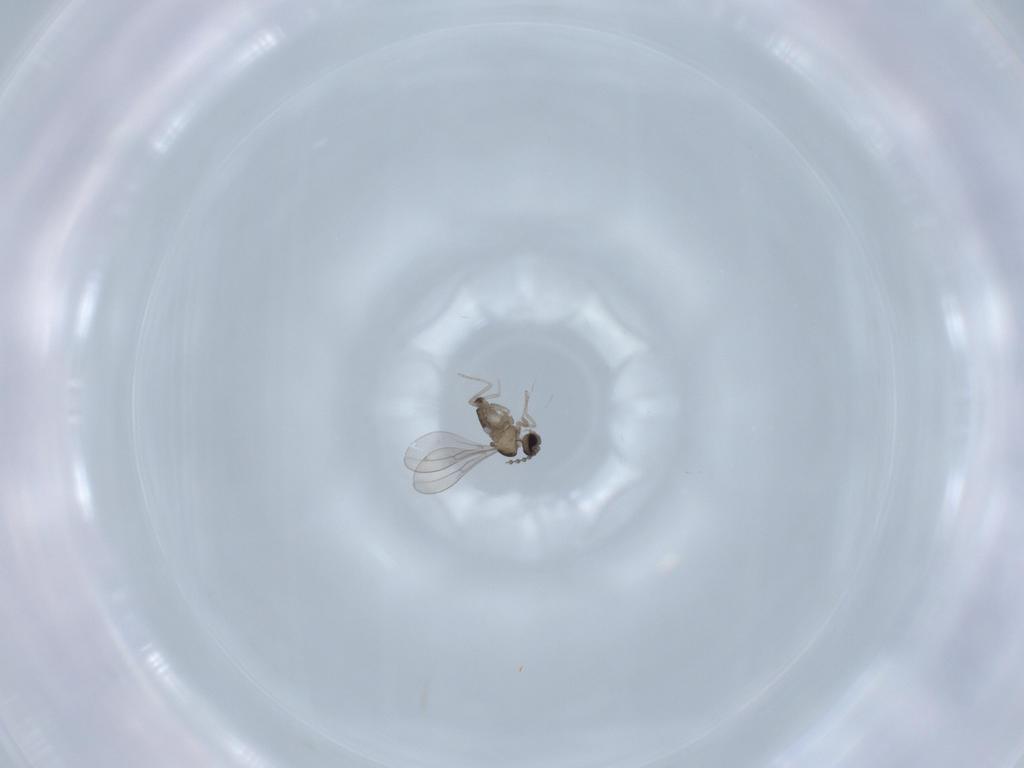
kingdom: Animalia
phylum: Arthropoda
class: Insecta
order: Diptera
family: Cecidomyiidae
